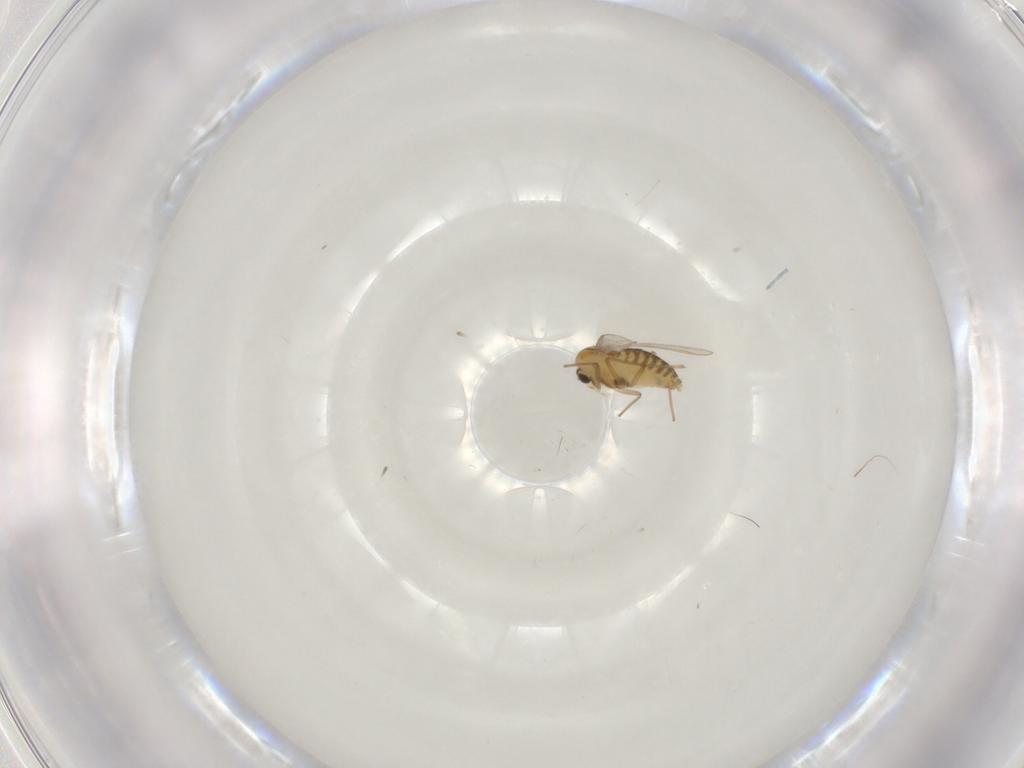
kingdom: Animalia
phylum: Arthropoda
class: Insecta
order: Diptera
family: Chironomidae
